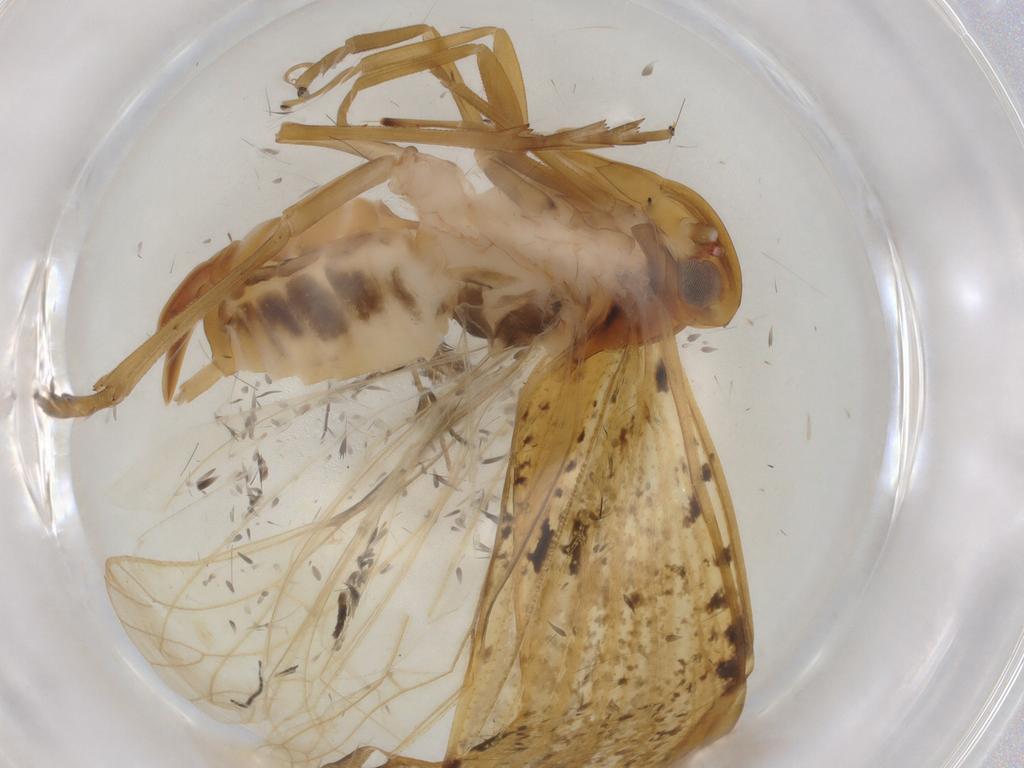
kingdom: Animalia
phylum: Arthropoda
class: Insecta
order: Hemiptera
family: Cixiidae
